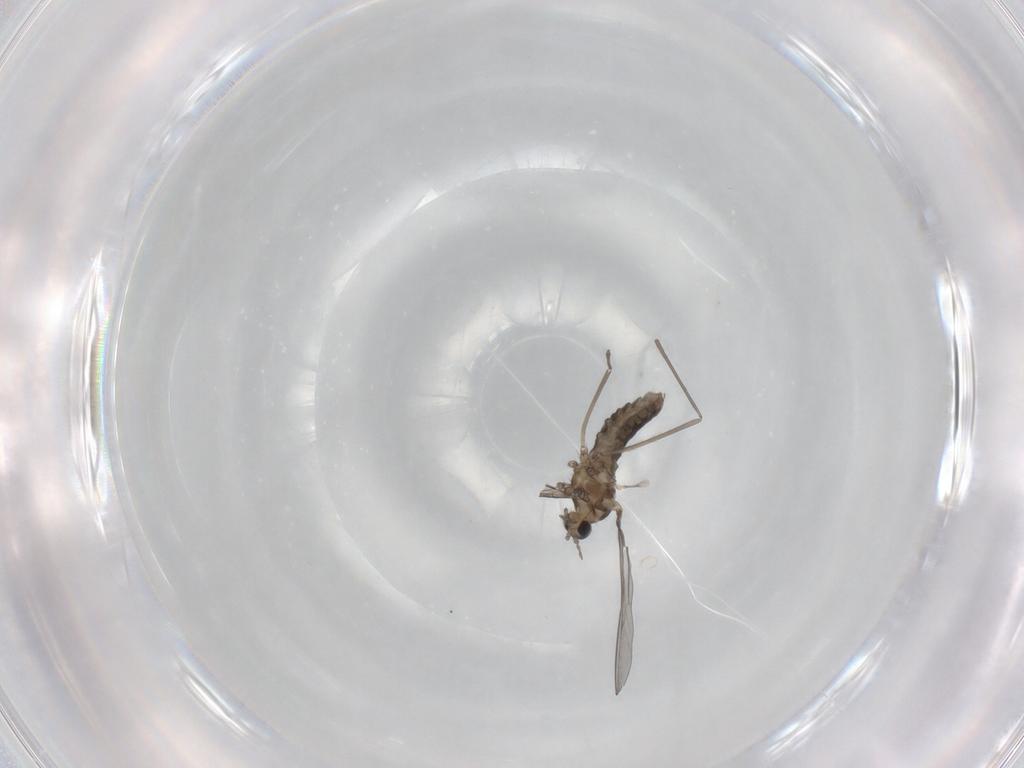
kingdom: Animalia
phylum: Arthropoda
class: Insecta
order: Diptera
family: Cecidomyiidae
